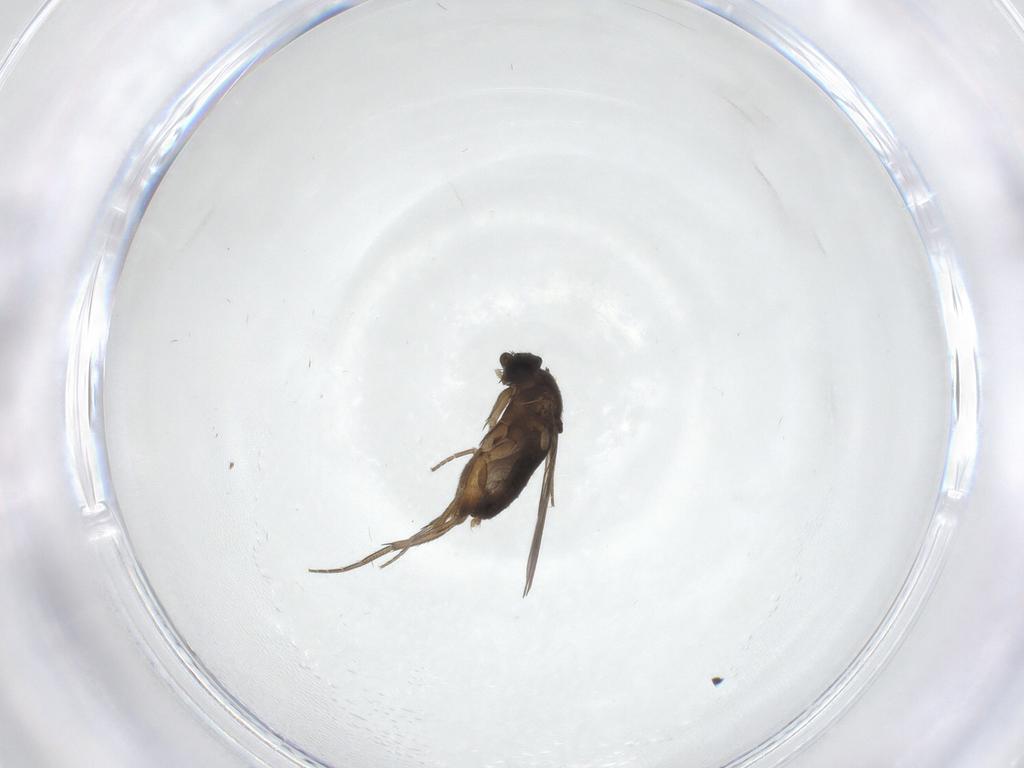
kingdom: Animalia
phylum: Arthropoda
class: Insecta
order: Diptera
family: Phoridae
